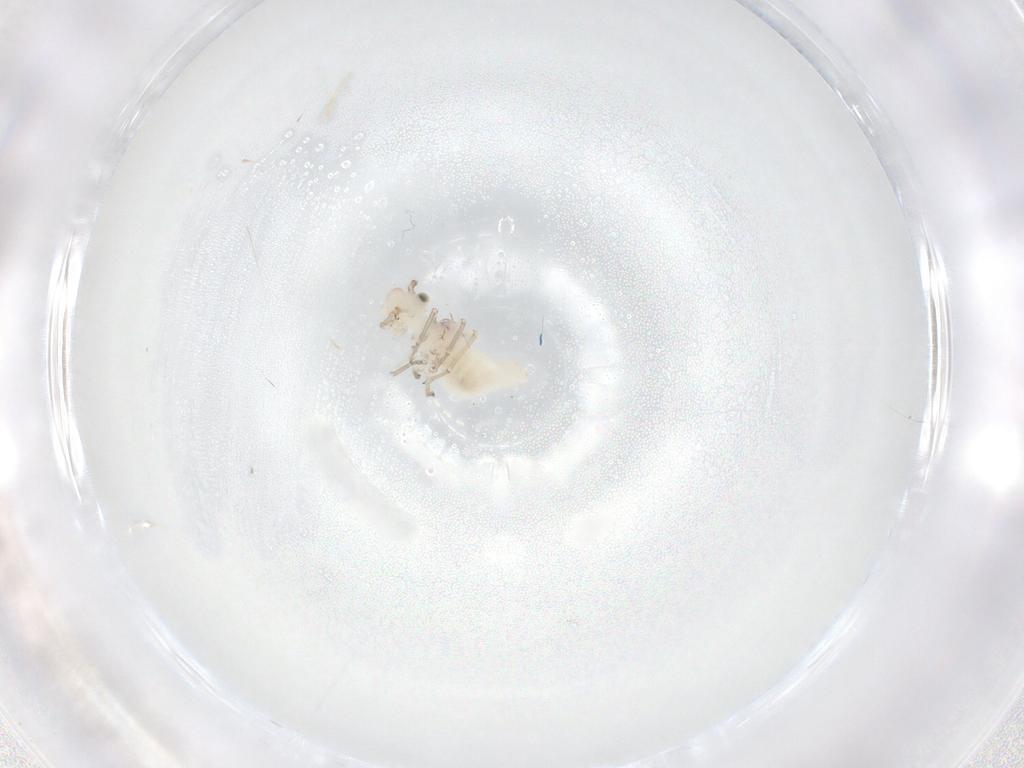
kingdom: Animalia
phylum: Arthropoda
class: Insecta
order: Psocodea
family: Caeciliusidae
